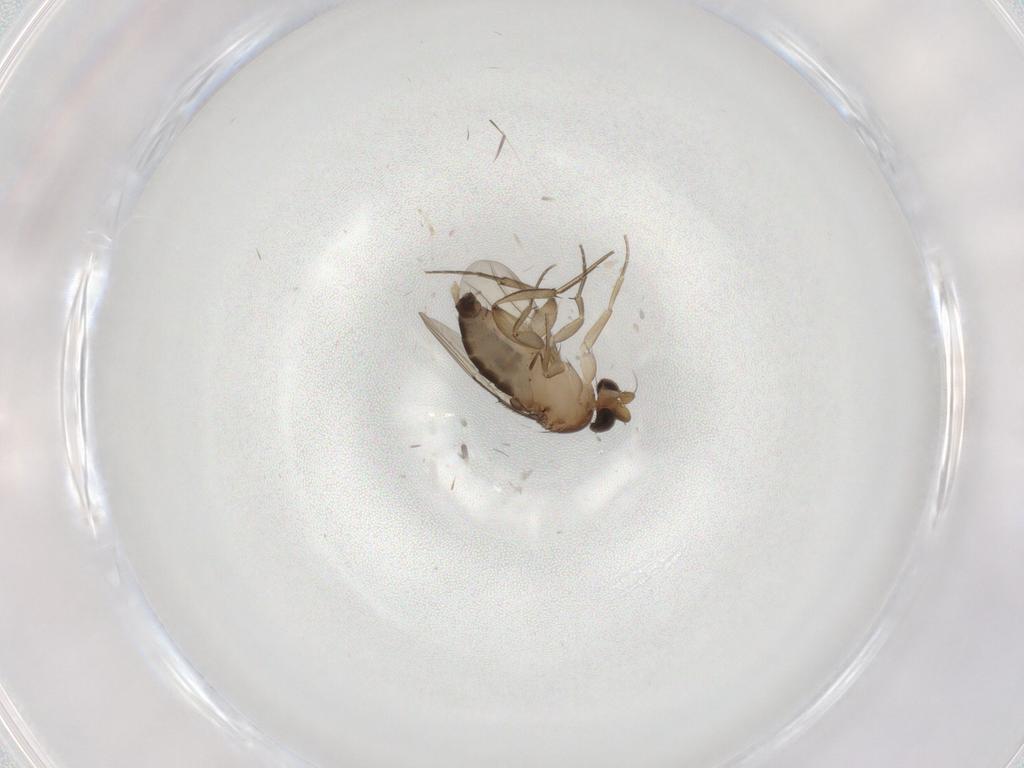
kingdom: Animalia
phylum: Arthropoda
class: Insecta
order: Diptera
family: Phoridae
